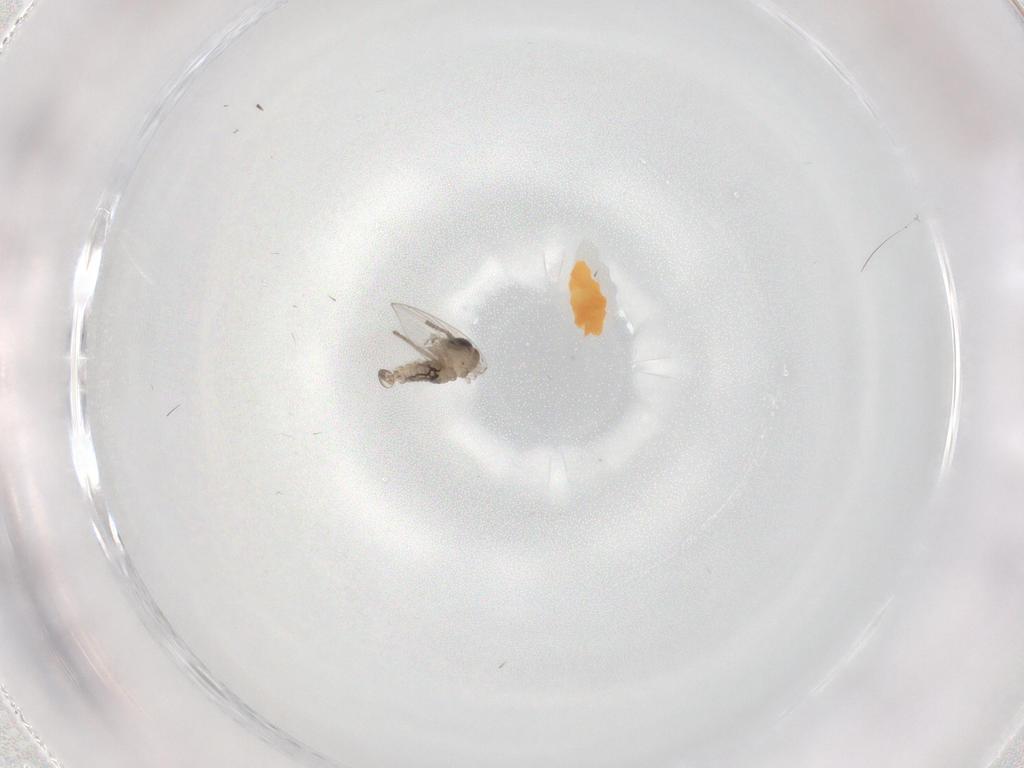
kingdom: Animalia
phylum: Arthropoda
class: Insecta
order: Diptera
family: Psychodidae
